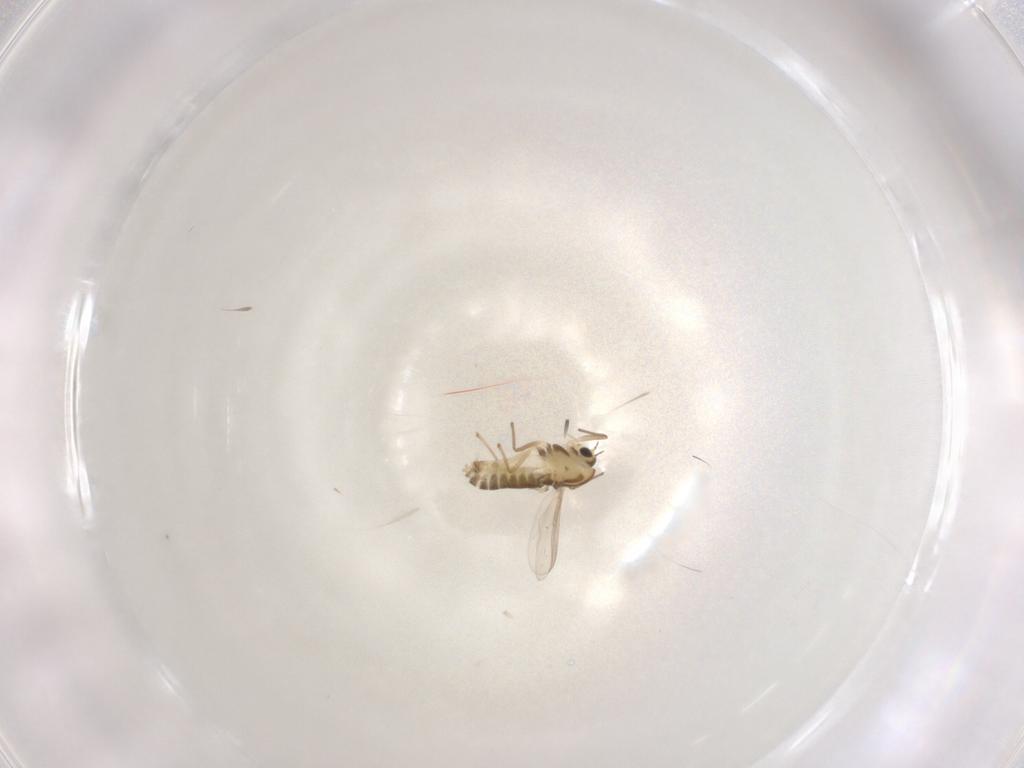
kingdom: Animalia
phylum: Arthropoda
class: Insecta
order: Diptera
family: Chironomidae
